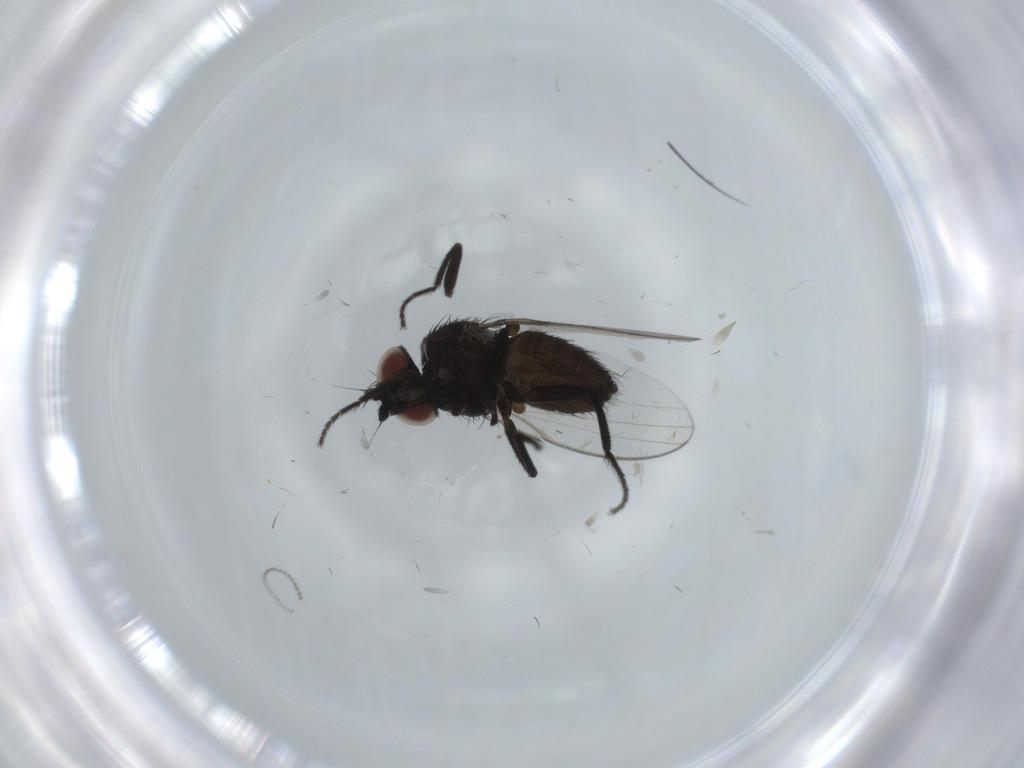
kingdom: Animalia
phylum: Arthropoda
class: Insecta
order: Diptera
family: Milichiidae
